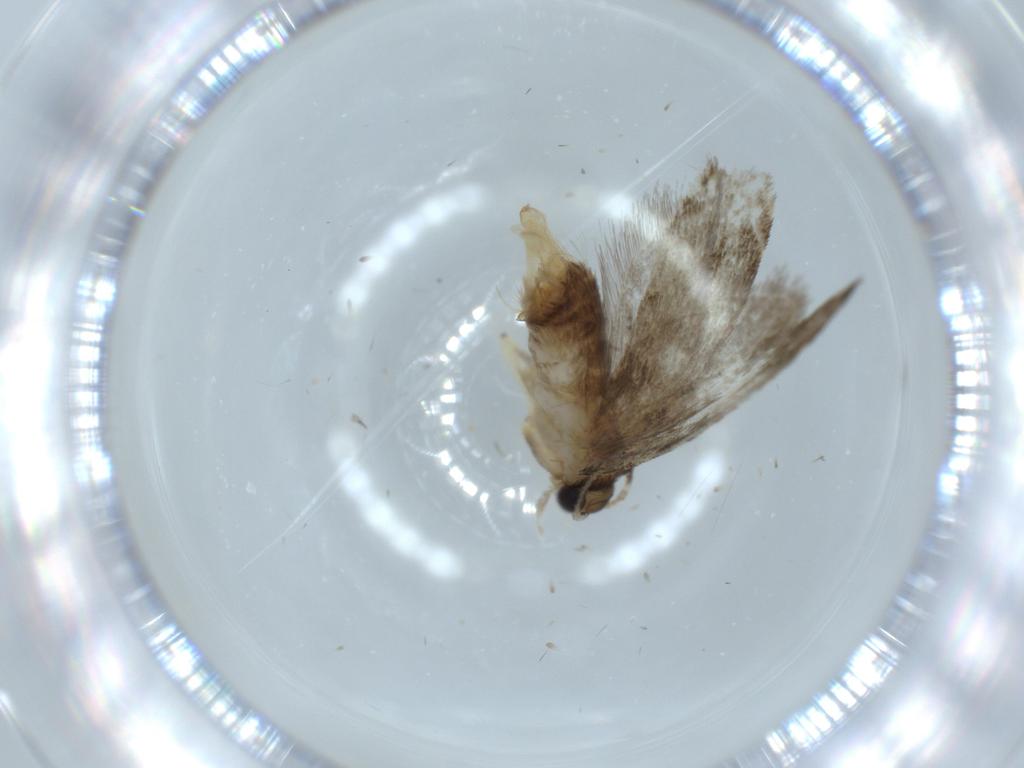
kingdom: Animalia
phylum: Arthropoda
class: Insecta
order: Lepidoptera
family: Tineidae
